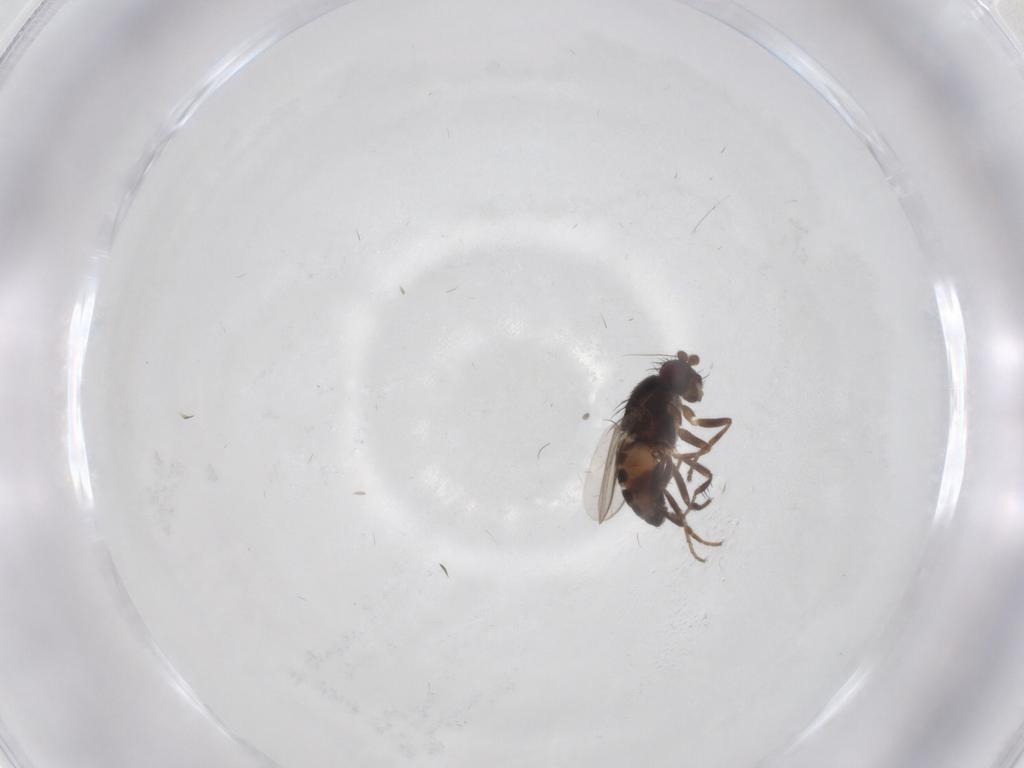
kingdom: Animalia
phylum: Arthropoda
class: Insecta
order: Diptera
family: Sphaeroceridae
